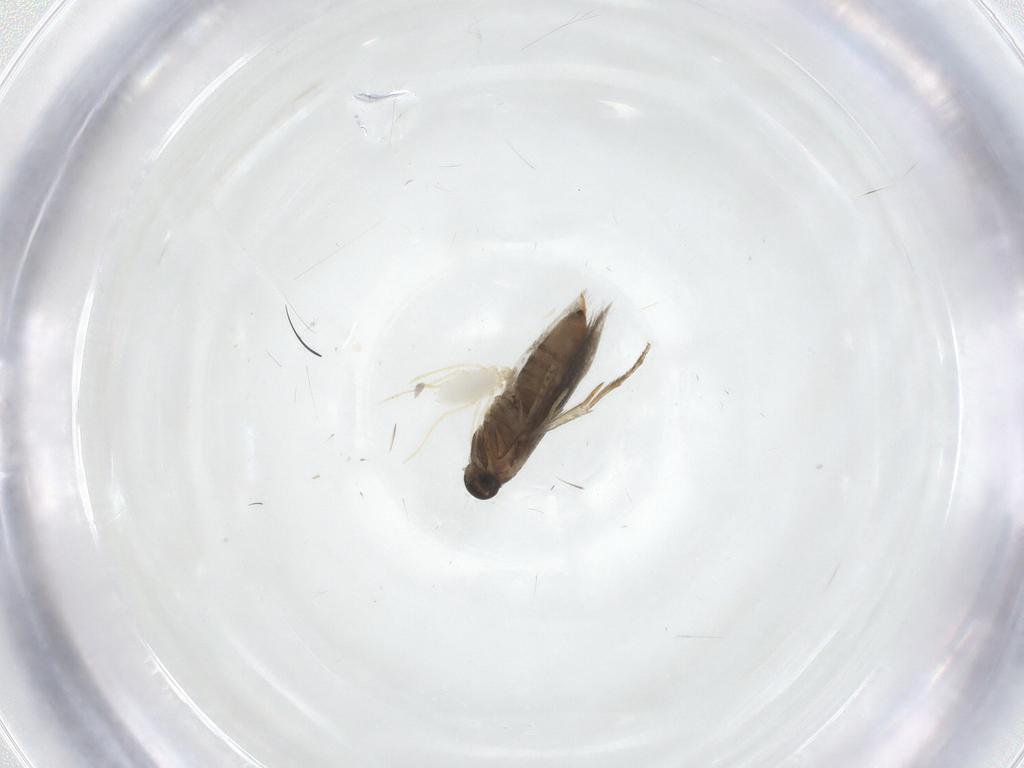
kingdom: Animalia
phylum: Arthropoda
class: Insecta
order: Lepidoptera
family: Heliozelidae
